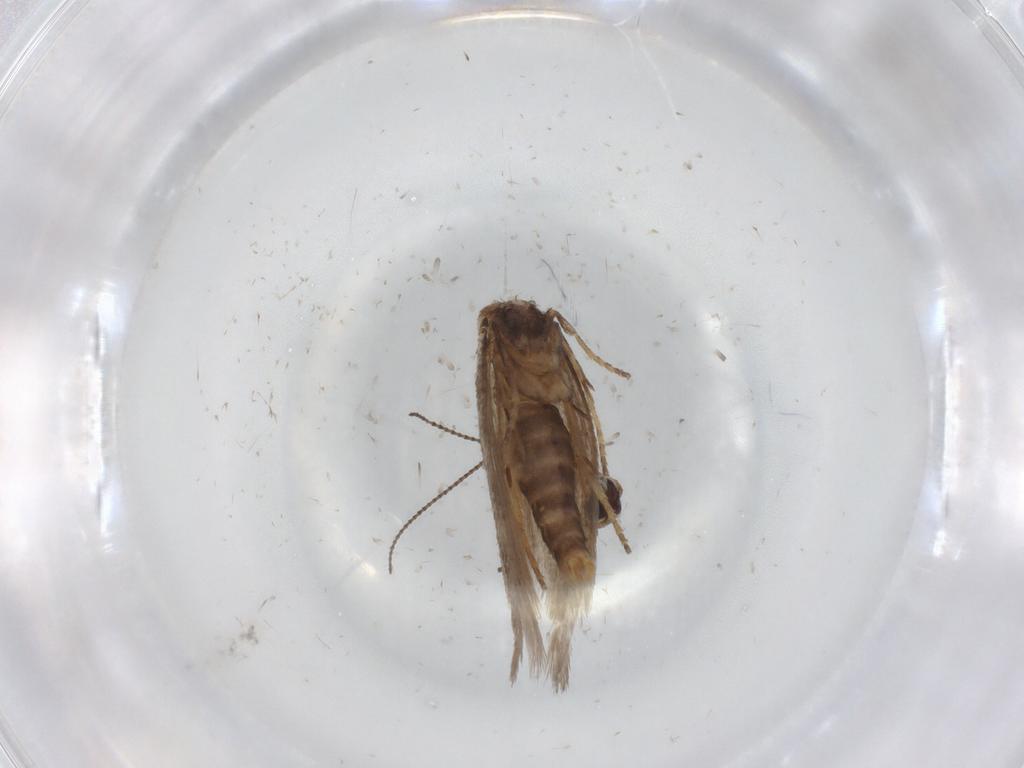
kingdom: Animalia
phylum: Arthropoda
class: Insecta
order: Lepidoptera
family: Nepticulidae
